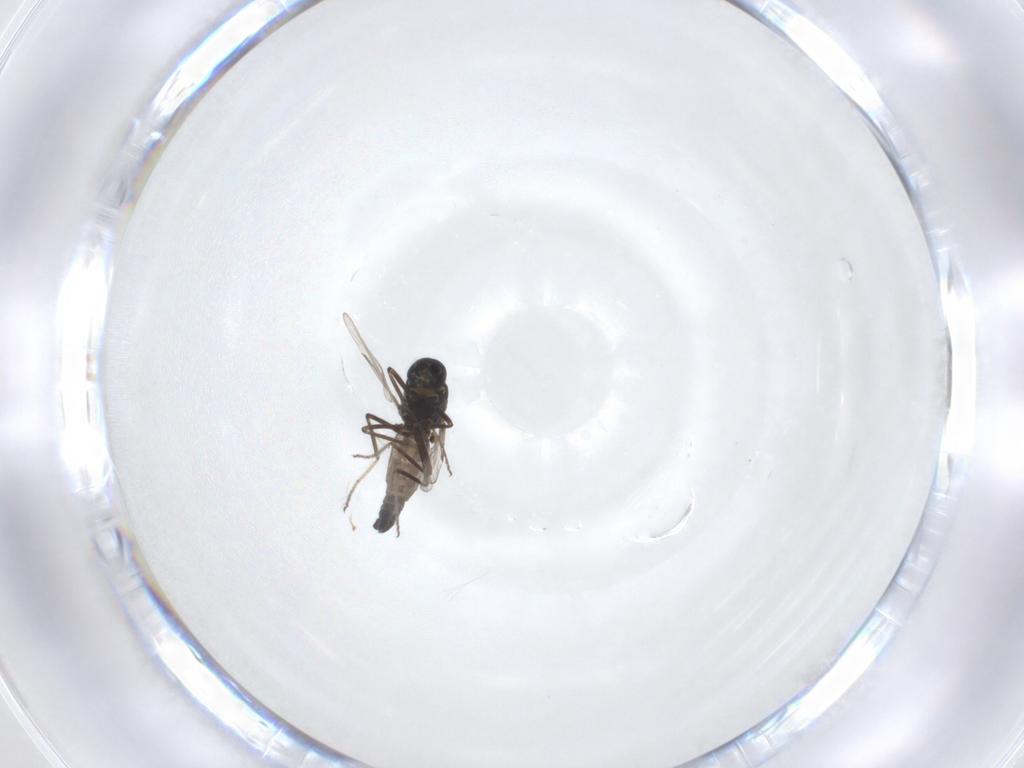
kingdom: Animalia
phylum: Arthropoda
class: Insecta
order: Diptera
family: Ceratopogonidae
